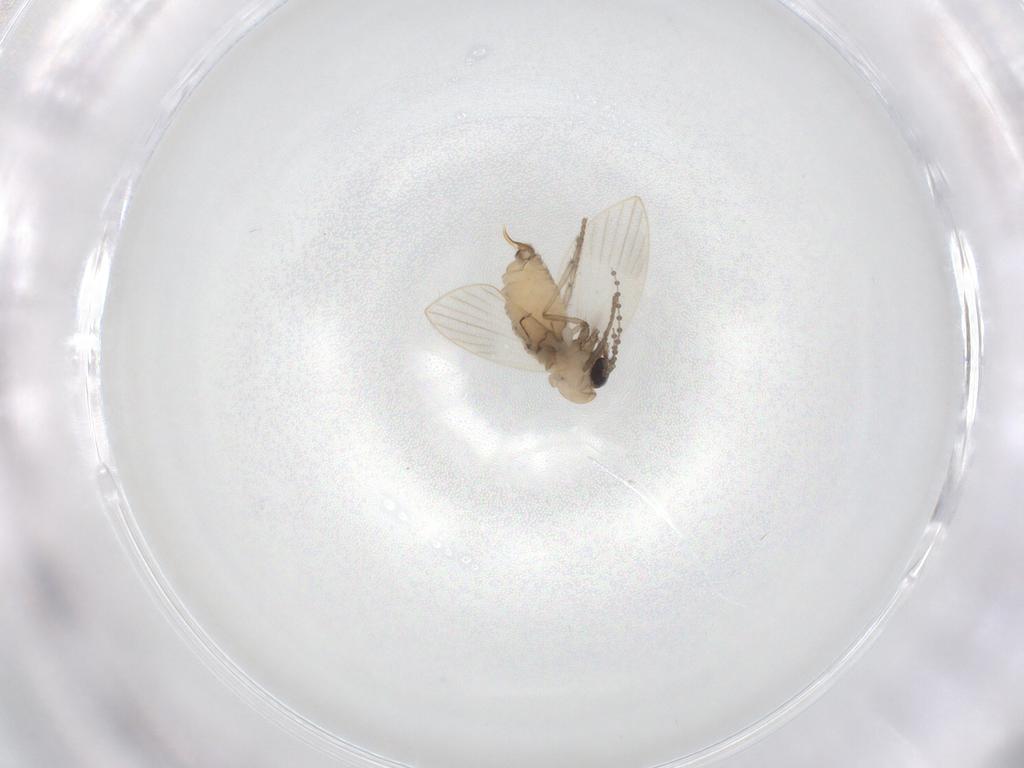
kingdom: Animalia
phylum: Arthropoda
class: Insecta
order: Diptera
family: Psychodidae
